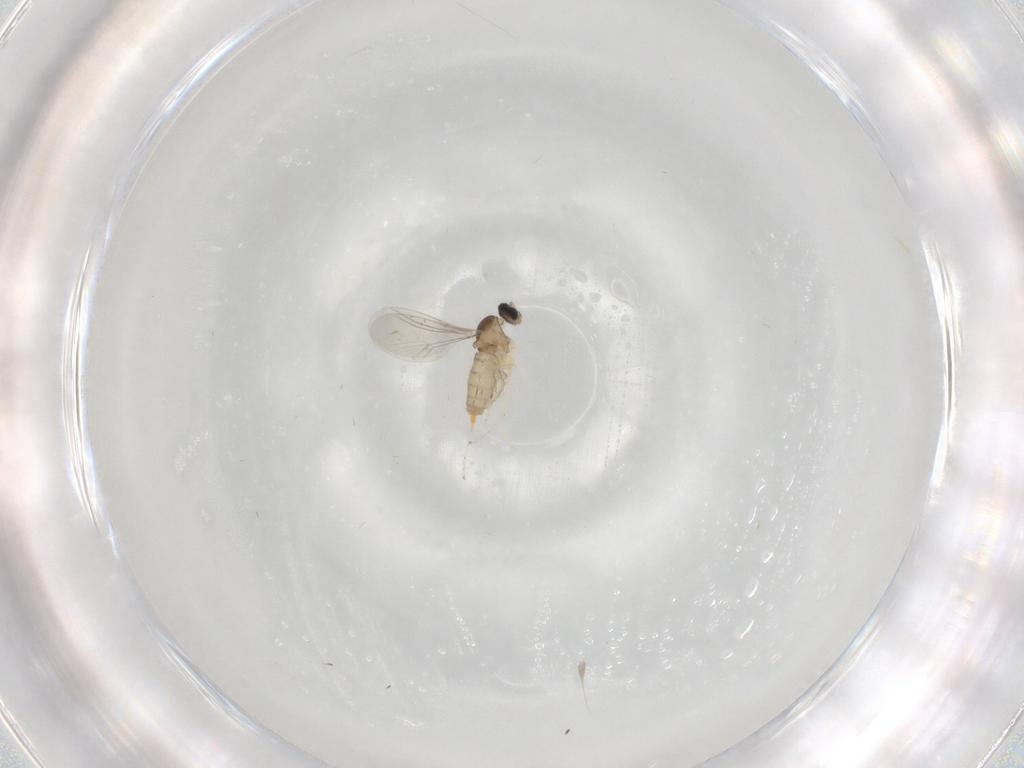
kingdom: Animalia
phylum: Arthropoda
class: Insecta
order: Diptera
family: Cecidomyiidae
